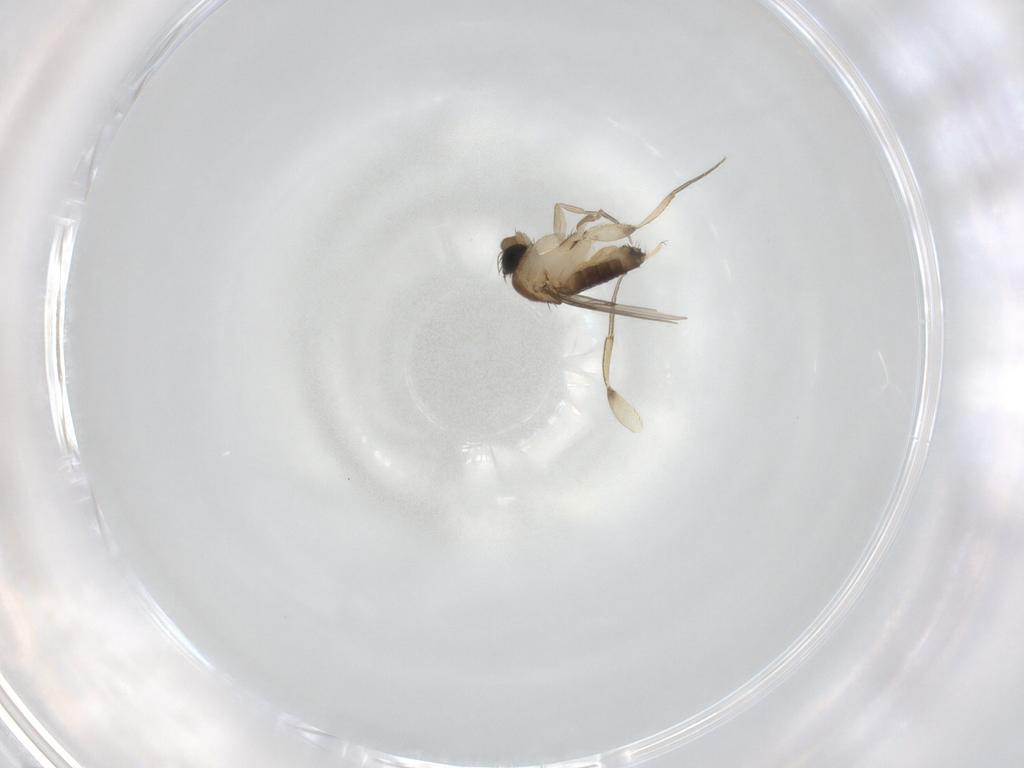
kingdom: Animalia
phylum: Arthropoda
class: Insecta
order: Diptera
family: Phoridae
